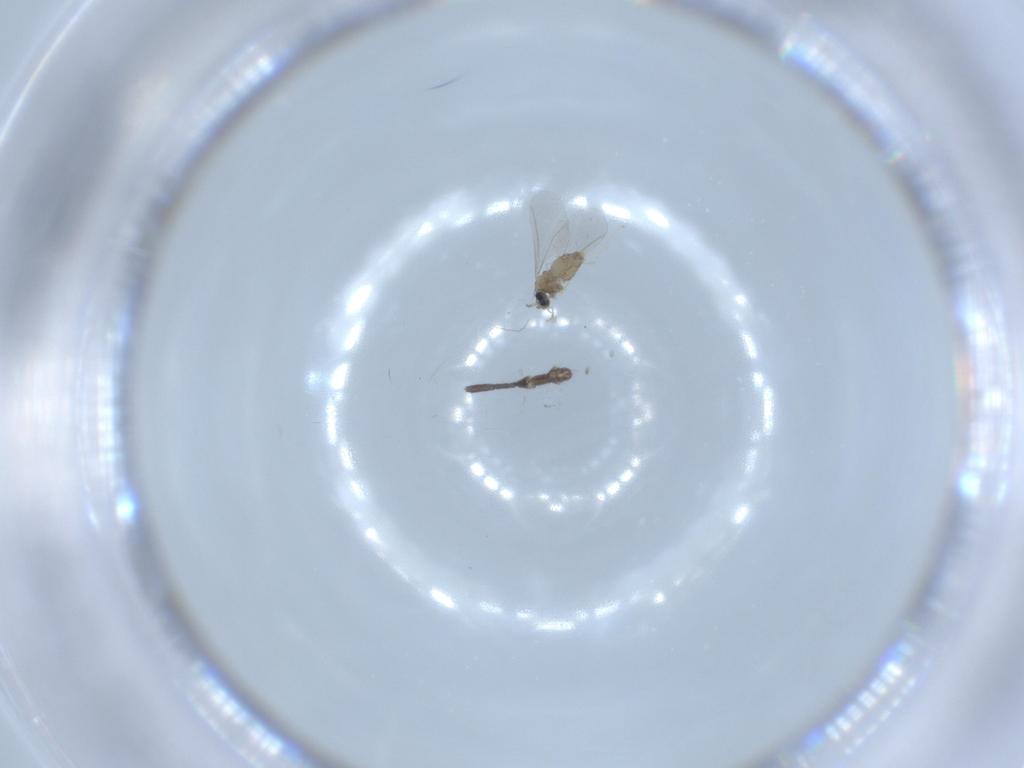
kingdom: Animalia
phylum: Arthropoda
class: Insecta
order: Diptera
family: Chironomidae
